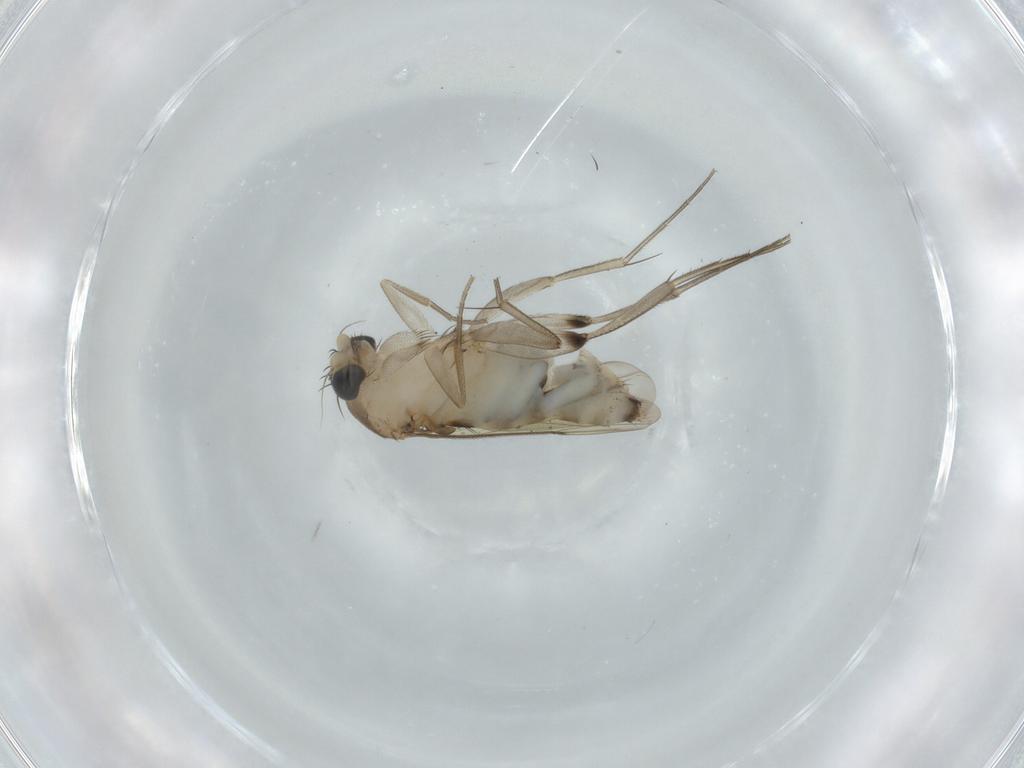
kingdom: Animalia
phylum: Arthropoda
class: Insecta
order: Diptera
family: Phoridae
